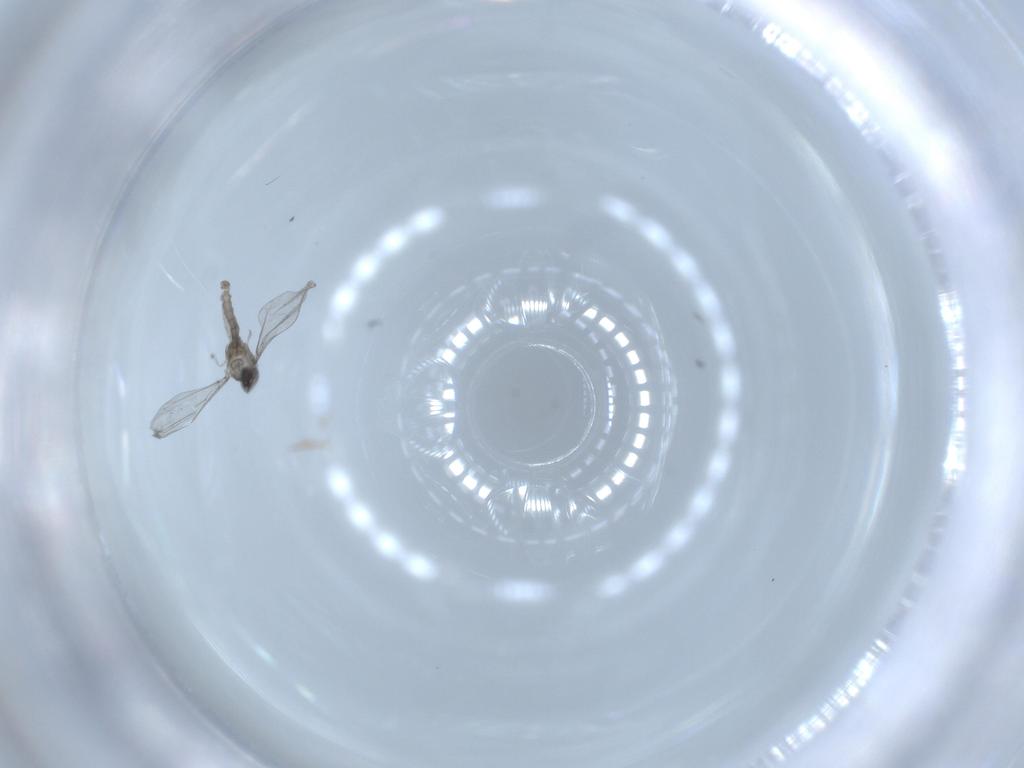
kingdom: Animalia
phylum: Arthropoda
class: Insecta
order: Diptera
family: Ceratopogonidae
